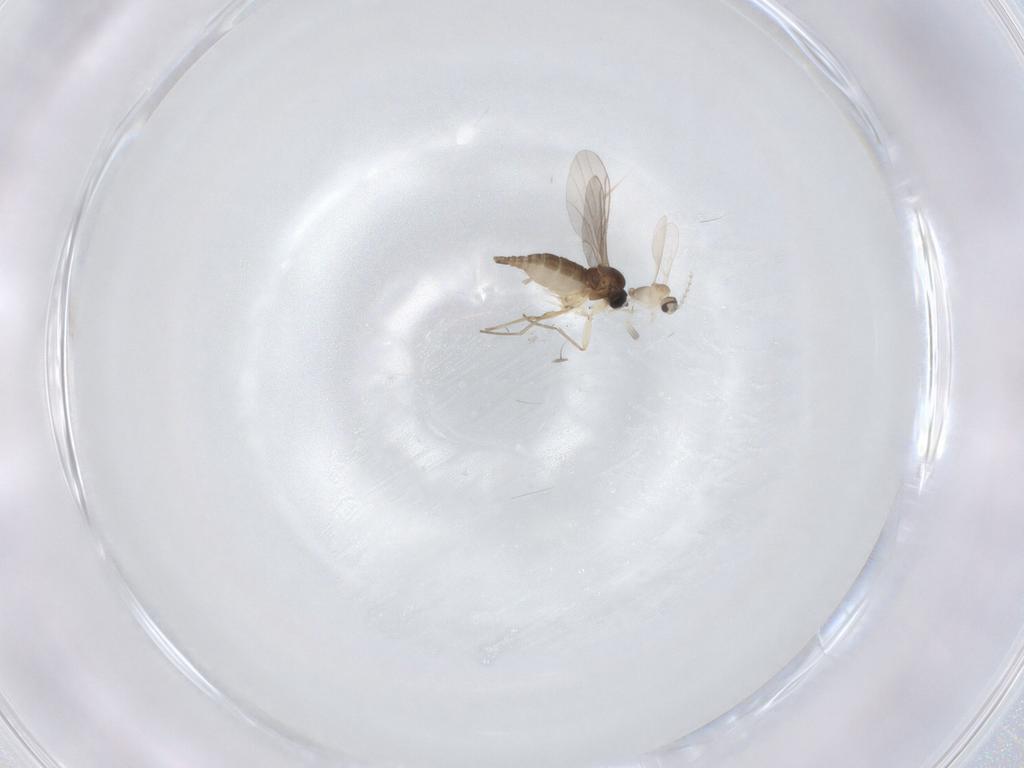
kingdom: Animalia
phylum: Arthropoda
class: Insecta
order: Diptera
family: Sciaridae
